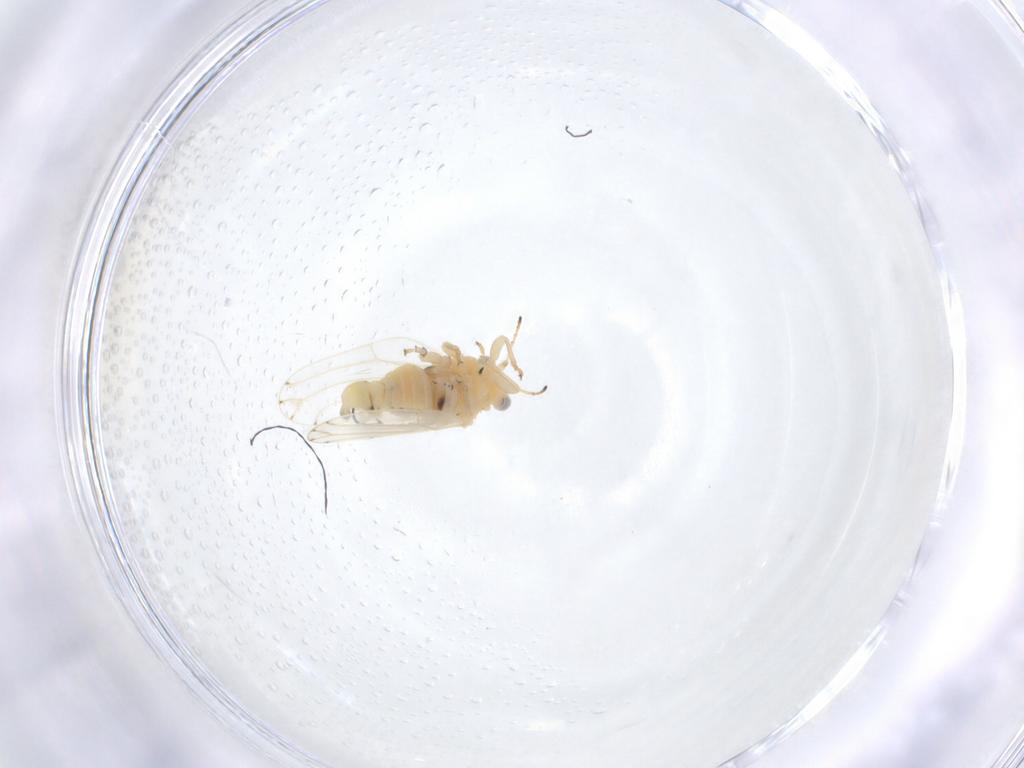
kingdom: Animalia
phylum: Arthropoda
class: Insecta
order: Hemiptera
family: Aphalaridae
